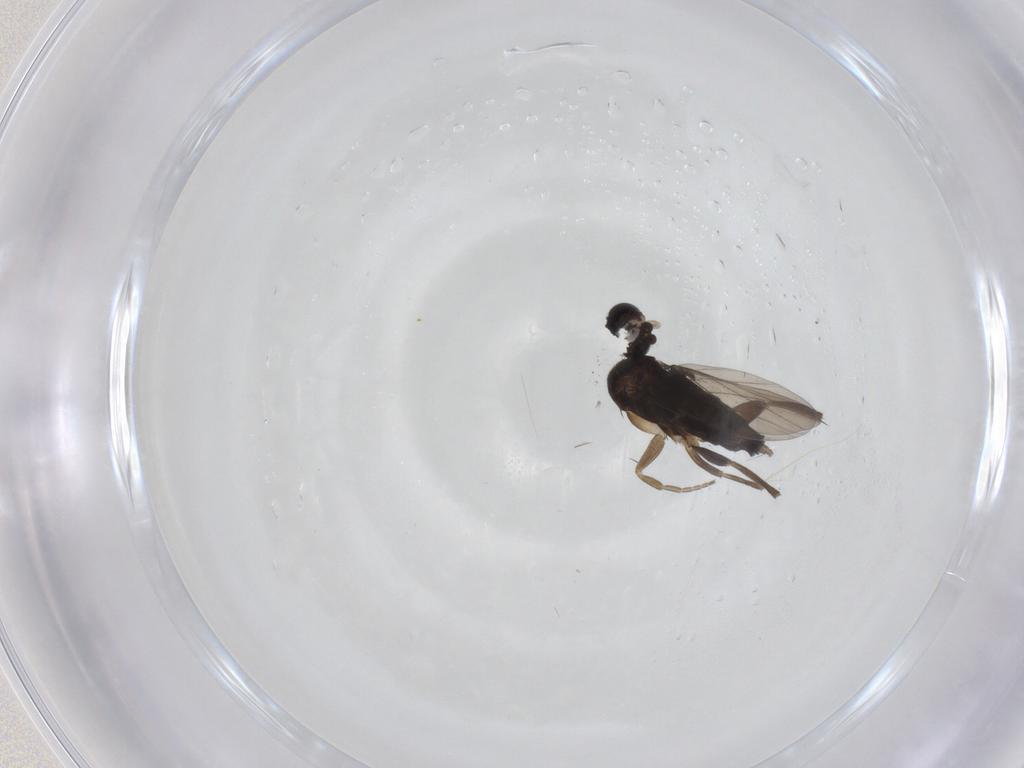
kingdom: Animalia
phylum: Arthropoda
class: Insecta
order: Diptera
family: Phoridae
